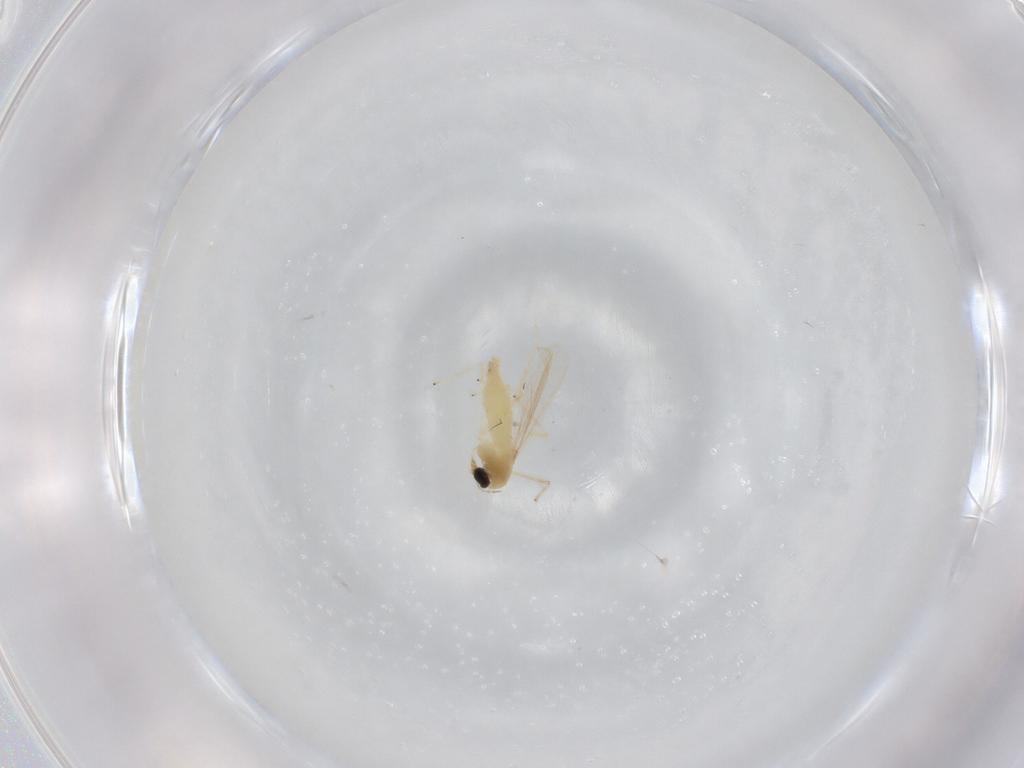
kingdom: Animalia
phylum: Arthropoda
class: Insecta
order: Diptera
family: Chironomidae
